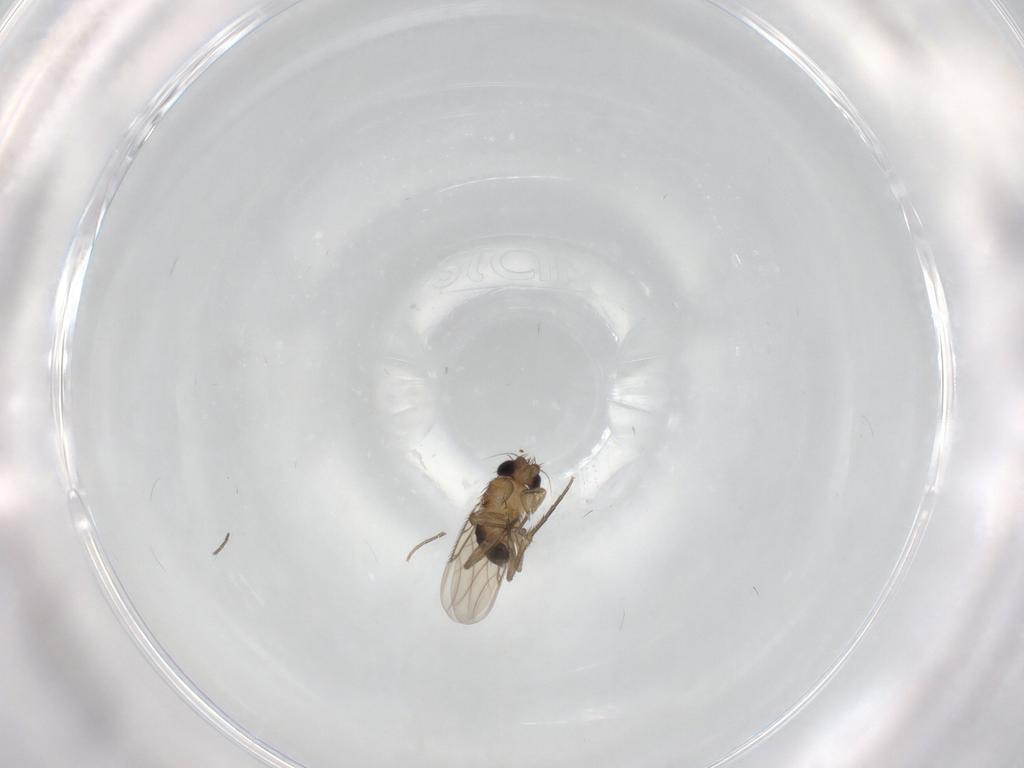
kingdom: Animalia
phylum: Arthropoda
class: Insecta
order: Diptera
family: Phoridae
